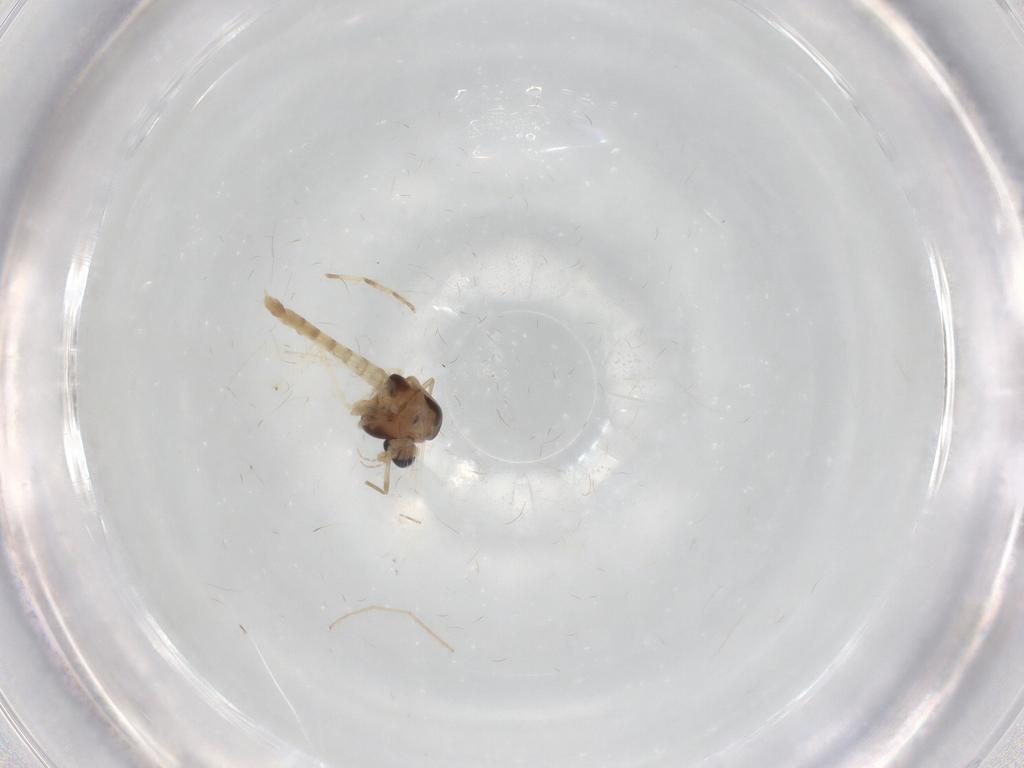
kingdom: Animalia
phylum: Arthropoda
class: Insecta
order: Diptera
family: Chironomidae
